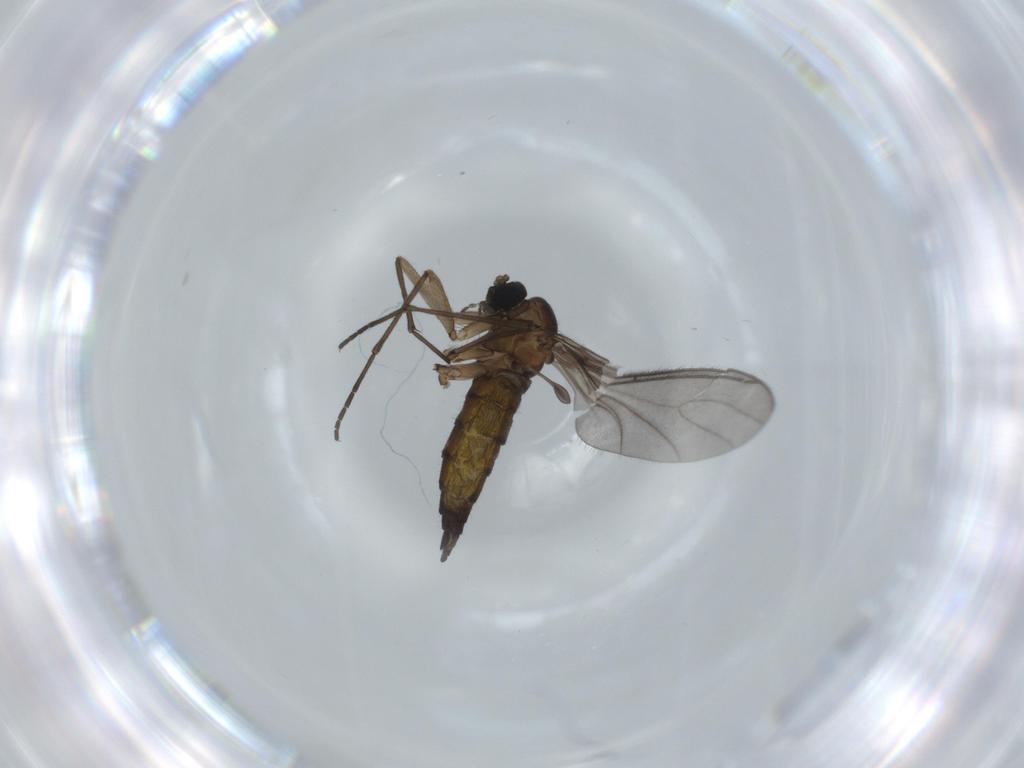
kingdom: Animalia
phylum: Arthropoda
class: Insecta
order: Diptera
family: Sciaridae
